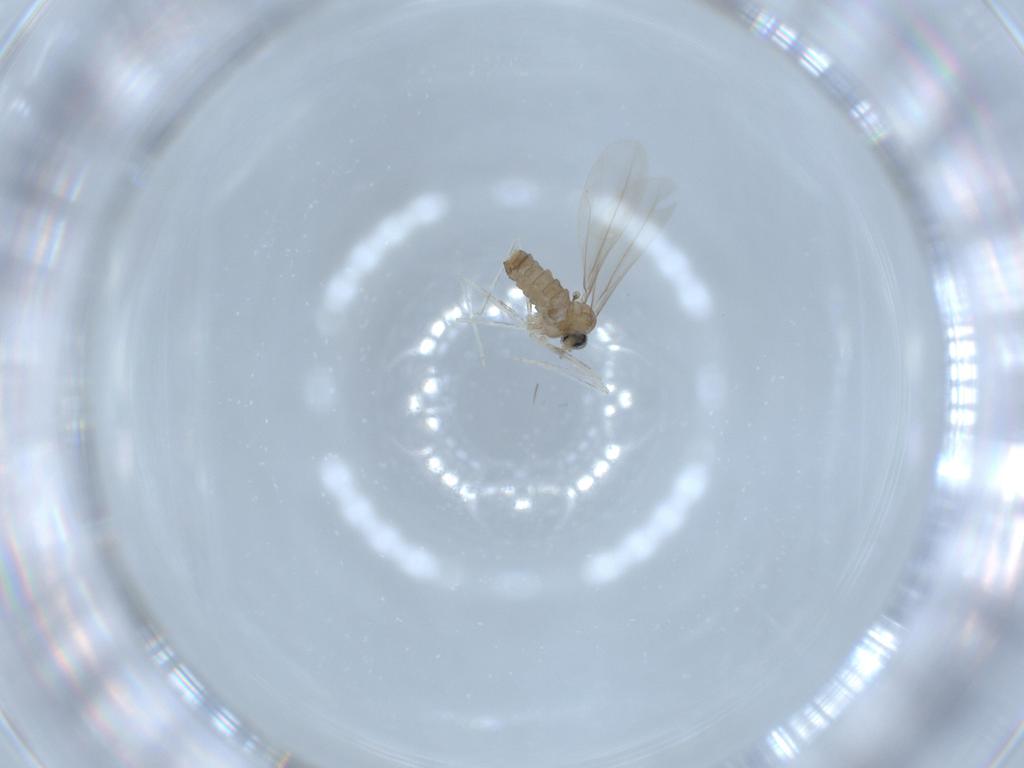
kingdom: Animalia
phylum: Arthropoda
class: Insecta
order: Diptera
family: Cecidomyiidae
